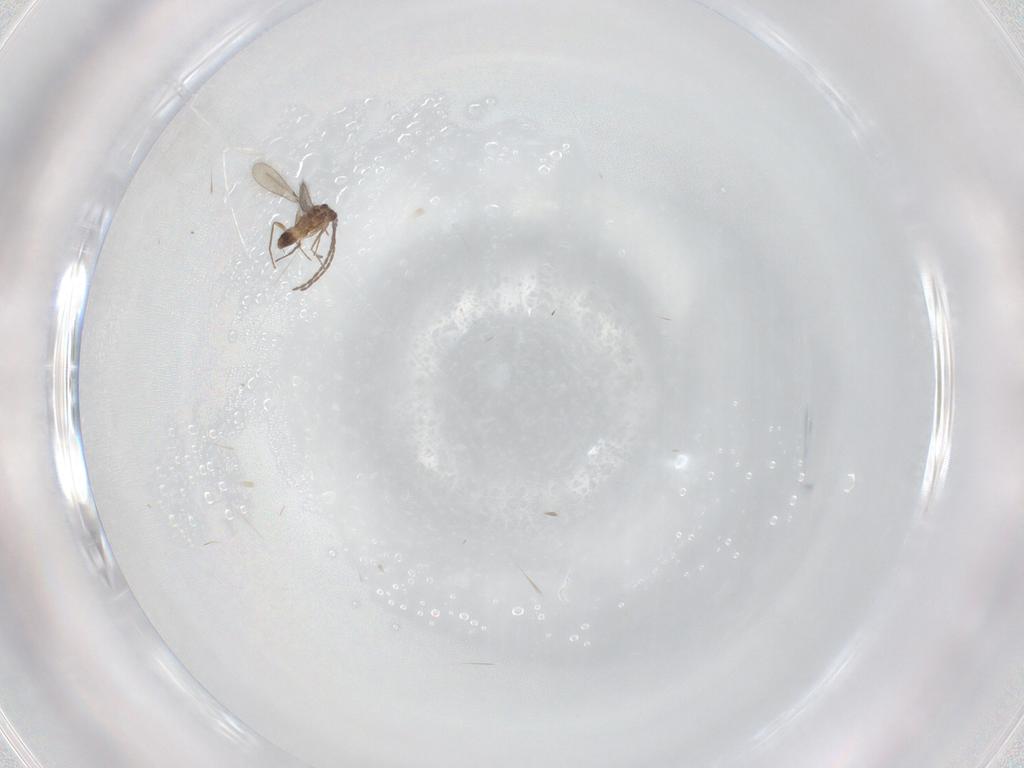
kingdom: Animalia
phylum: Arthropoda
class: Insecta
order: Hymenoptera
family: Mymaridae
